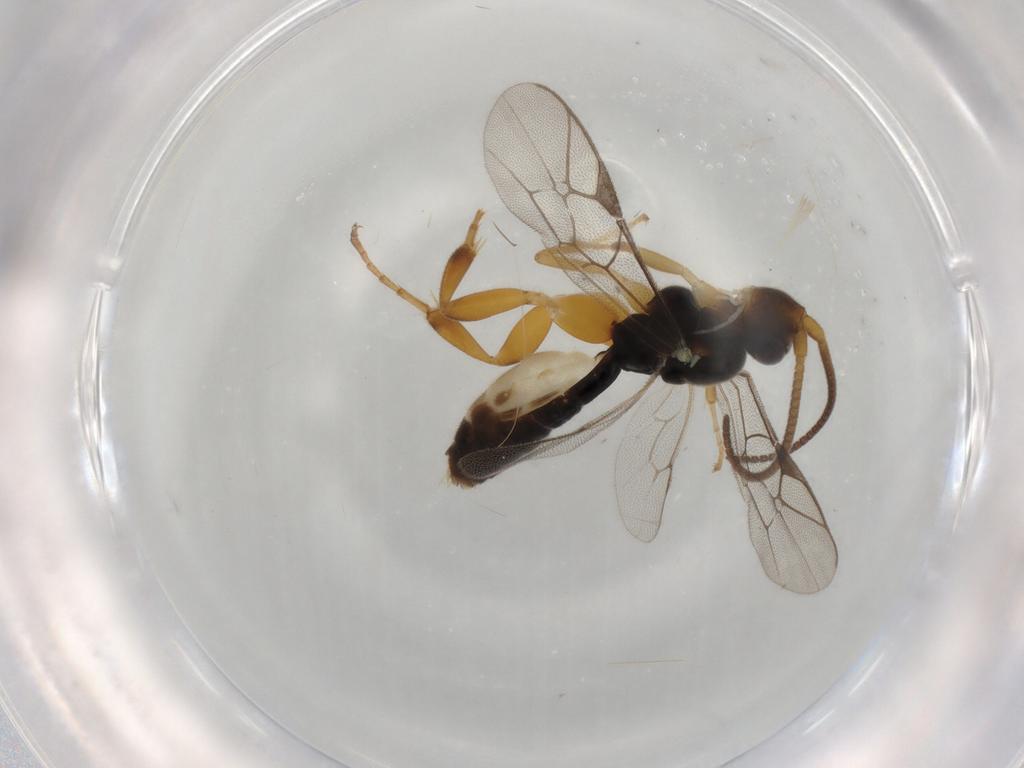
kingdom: Animalia
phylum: Arthropoda
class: Insecta
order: Hymenoptera
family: Ichneumonidae
